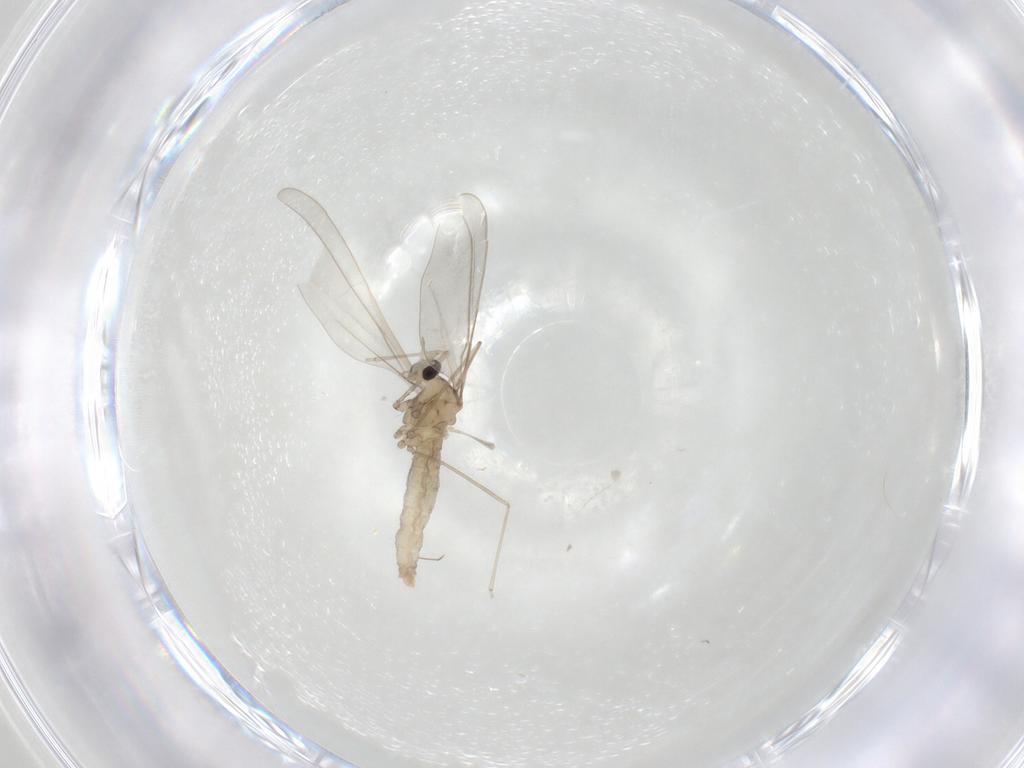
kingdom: Animalia
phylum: Arthropoda
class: Insecta
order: Diptera
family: Cecidomyiidae
